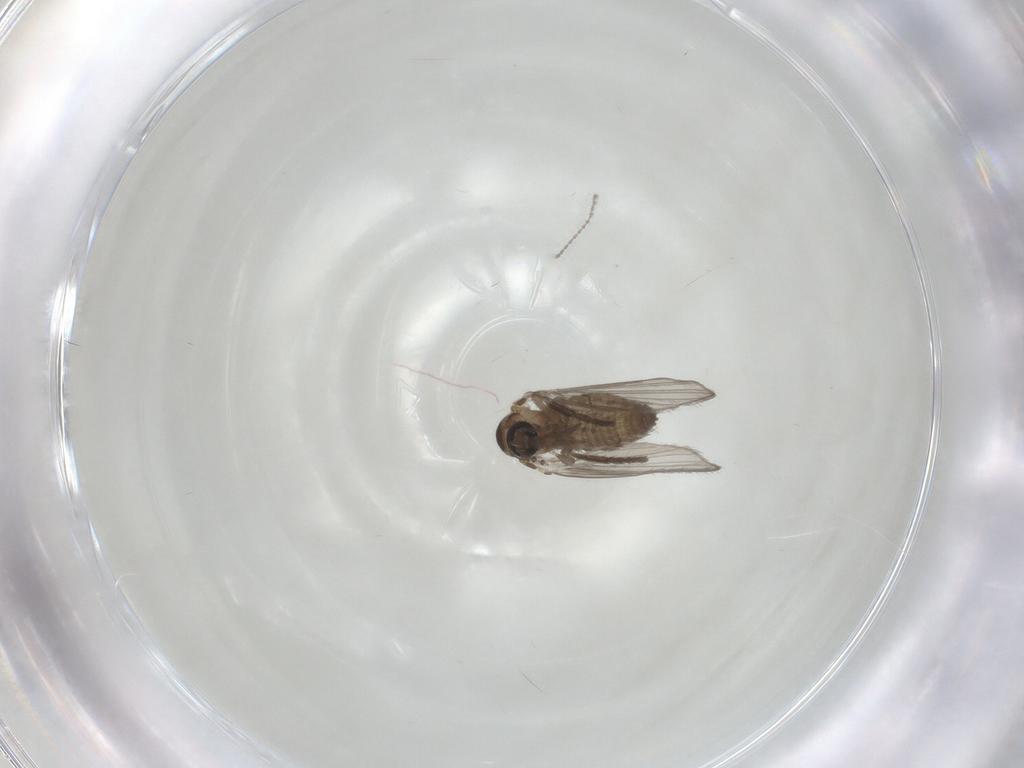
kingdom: Animalia
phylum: Arthropoda
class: Insecta
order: Diptera
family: Psychodidae
